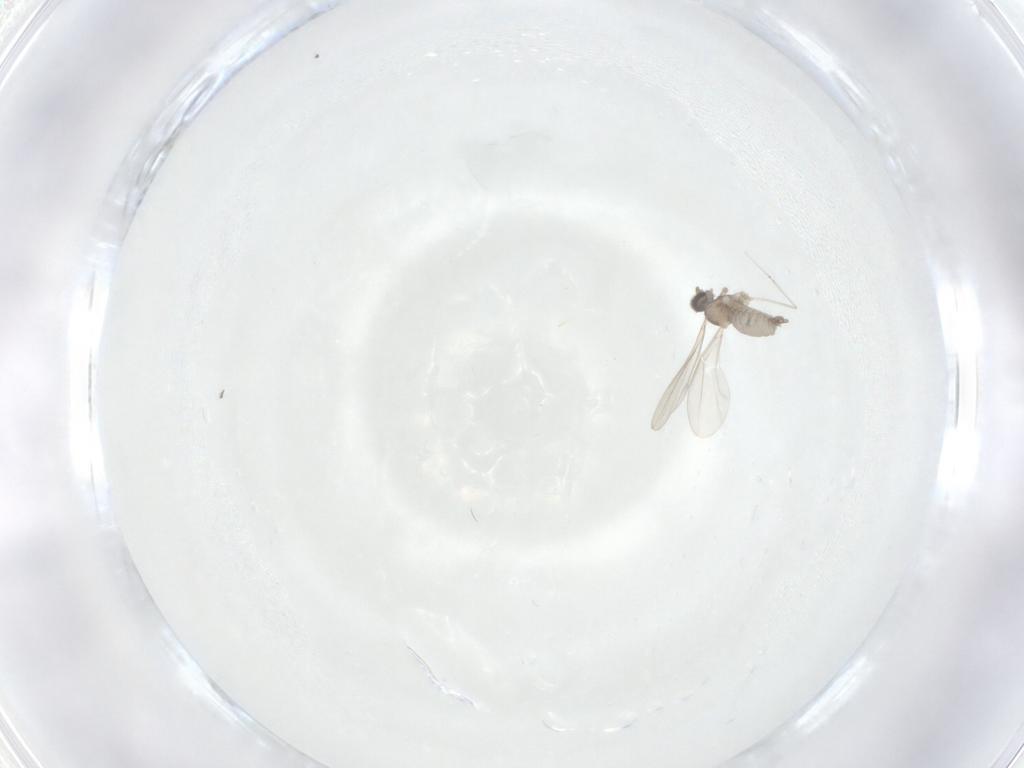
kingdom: Animalia
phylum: Arthropoda
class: Insecta
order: Diptera
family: Cecidomyiidae
